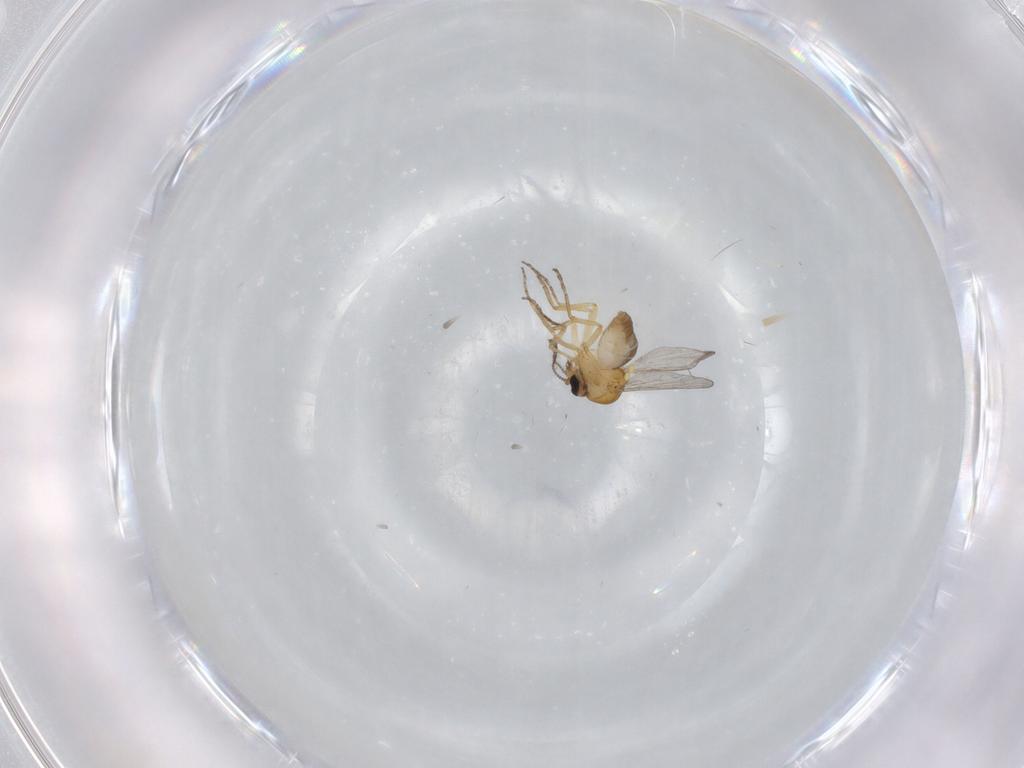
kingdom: Animalia
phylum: Arthropoda
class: Insecta
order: Diptera
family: Ceratopogonidae
